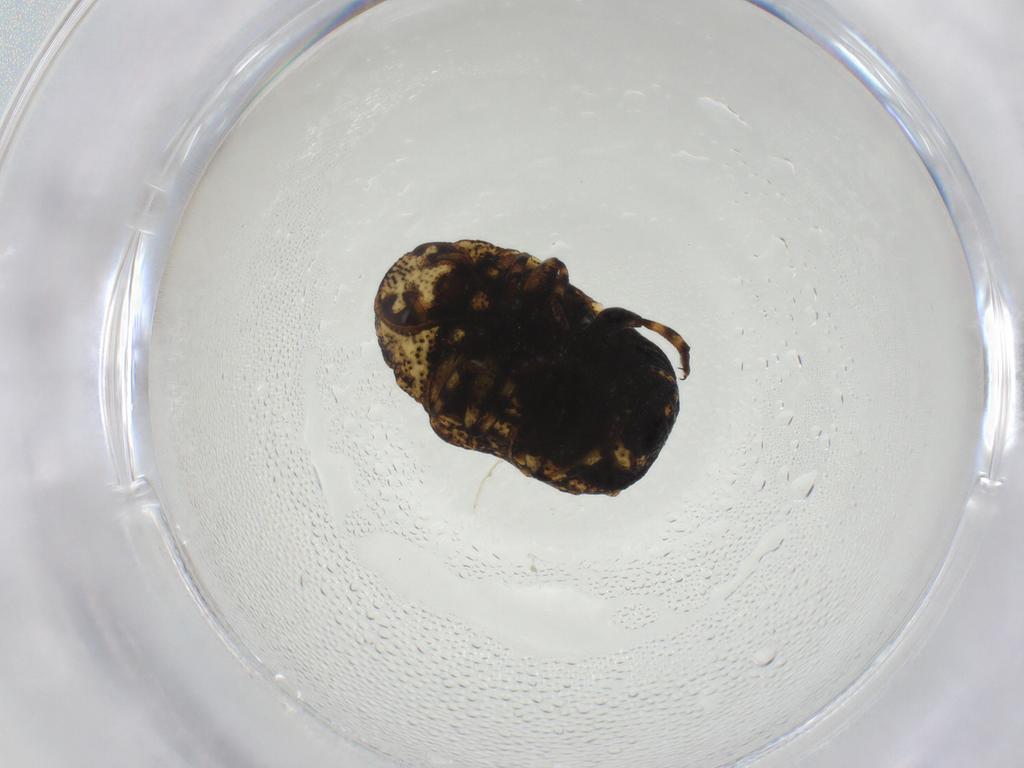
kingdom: Animalia
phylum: Arthropoda
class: Insecta
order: Coleoptera
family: Chrysomelidae
